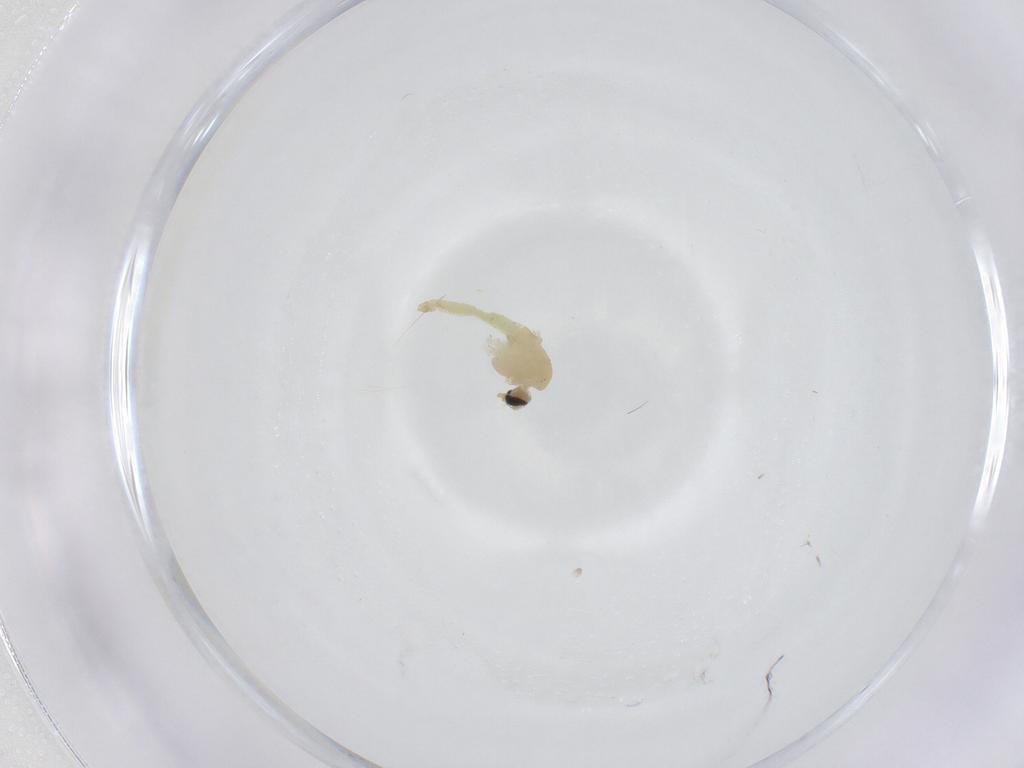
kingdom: Animalia
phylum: Arthropoda
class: Insecta
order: Diptera
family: Chironomidae
